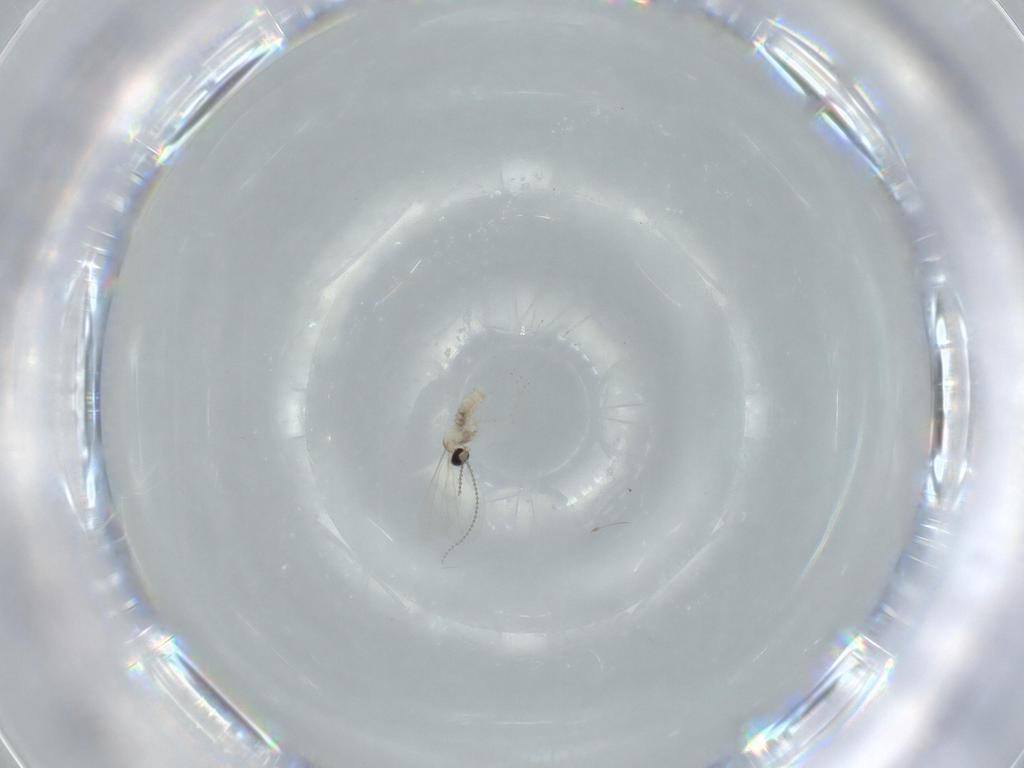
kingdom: Animalia
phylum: Arthropoda
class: Insecta
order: Diptera
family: Cecidomyiidae
